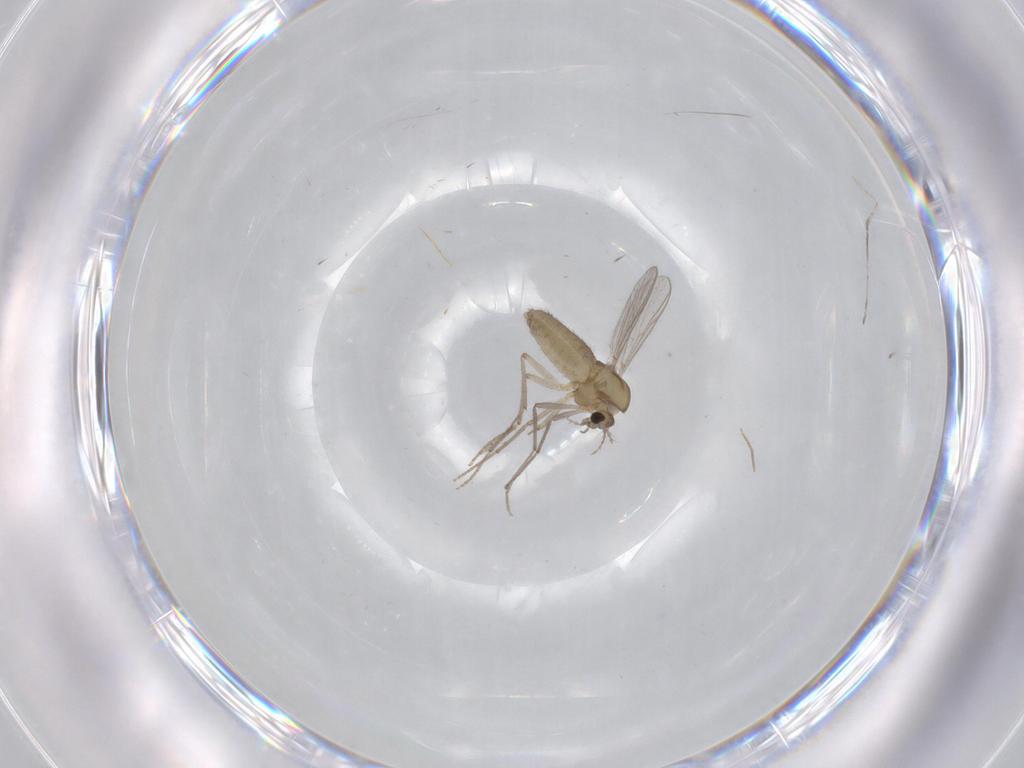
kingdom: Animalia
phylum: Arthropoda
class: Insecta
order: Diptera
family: Chironomidae
